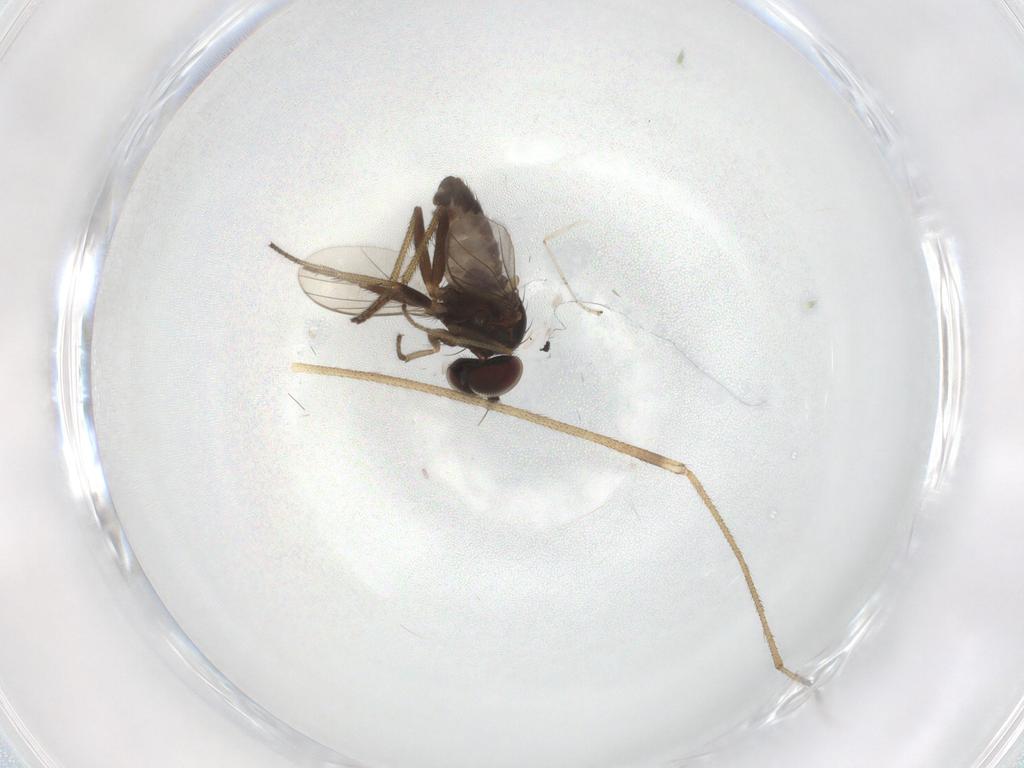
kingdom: Animalia
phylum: Arthropoda
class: Insecta
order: Diptera
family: Limoniidae
